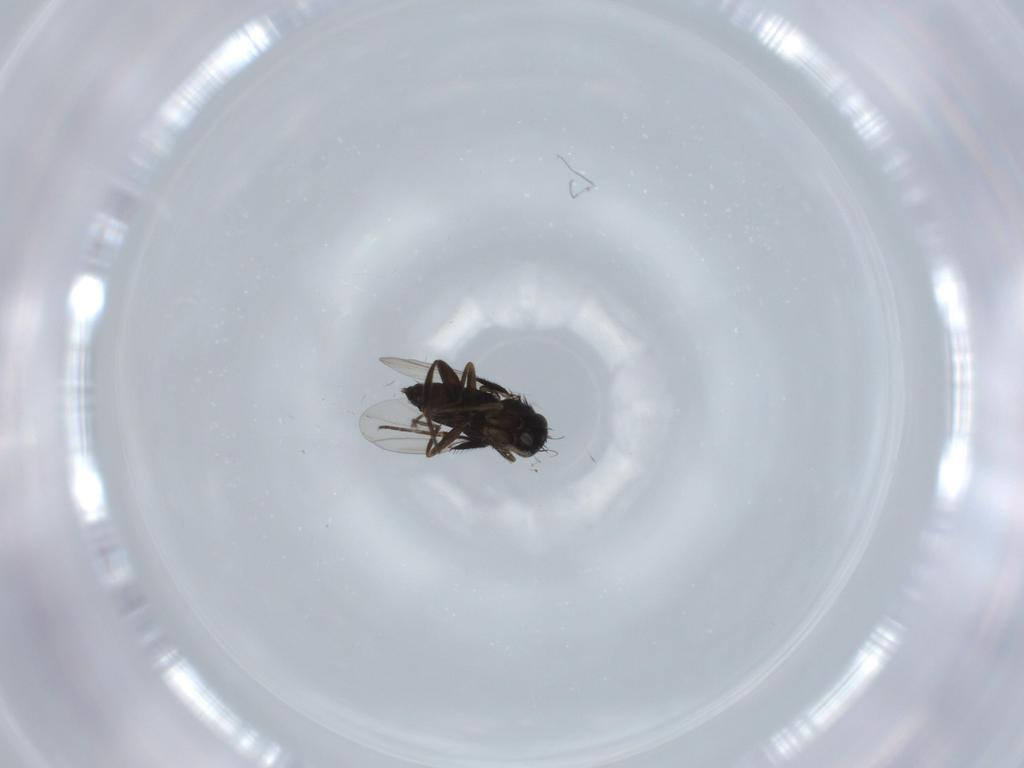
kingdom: Animalia
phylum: Arthropoda
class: Insecta
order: Diptera
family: Phoridae
